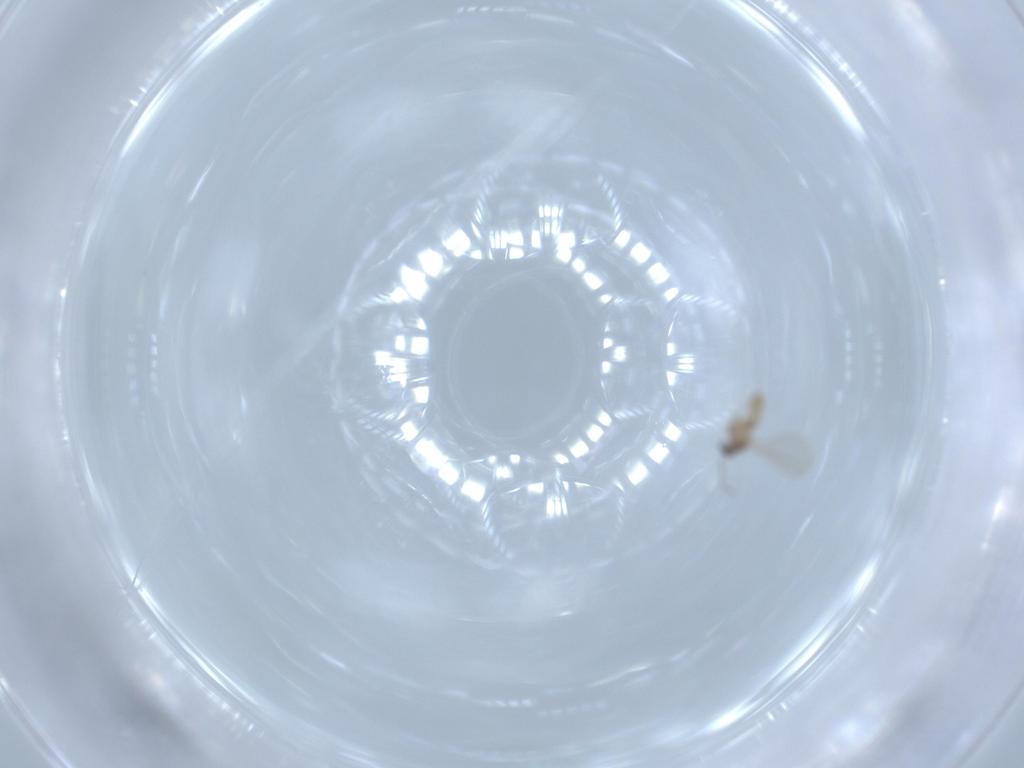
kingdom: Animalia
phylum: Arthropoda
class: Insecta
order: Diptera
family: Cecidomyiidae
